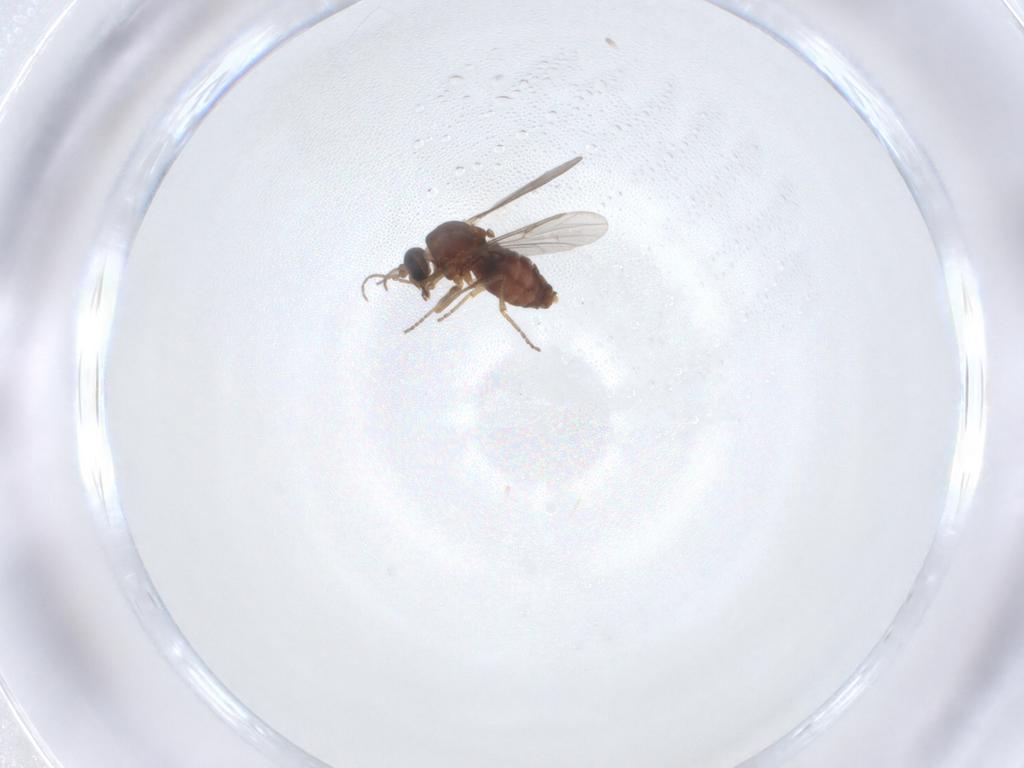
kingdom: Animalia
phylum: Arthropoda
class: Insecta
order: Diptera
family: Ceratopogonidae
